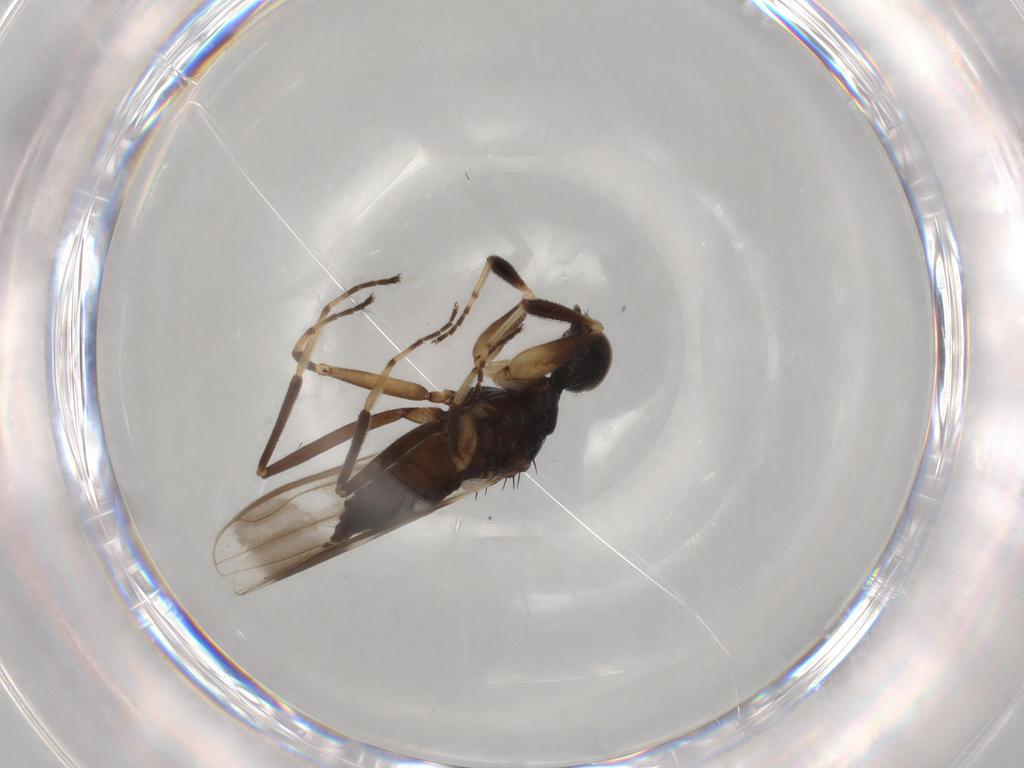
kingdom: Animalia
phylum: Arthropoda
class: Insecta
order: Diptera
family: Hybotidae
